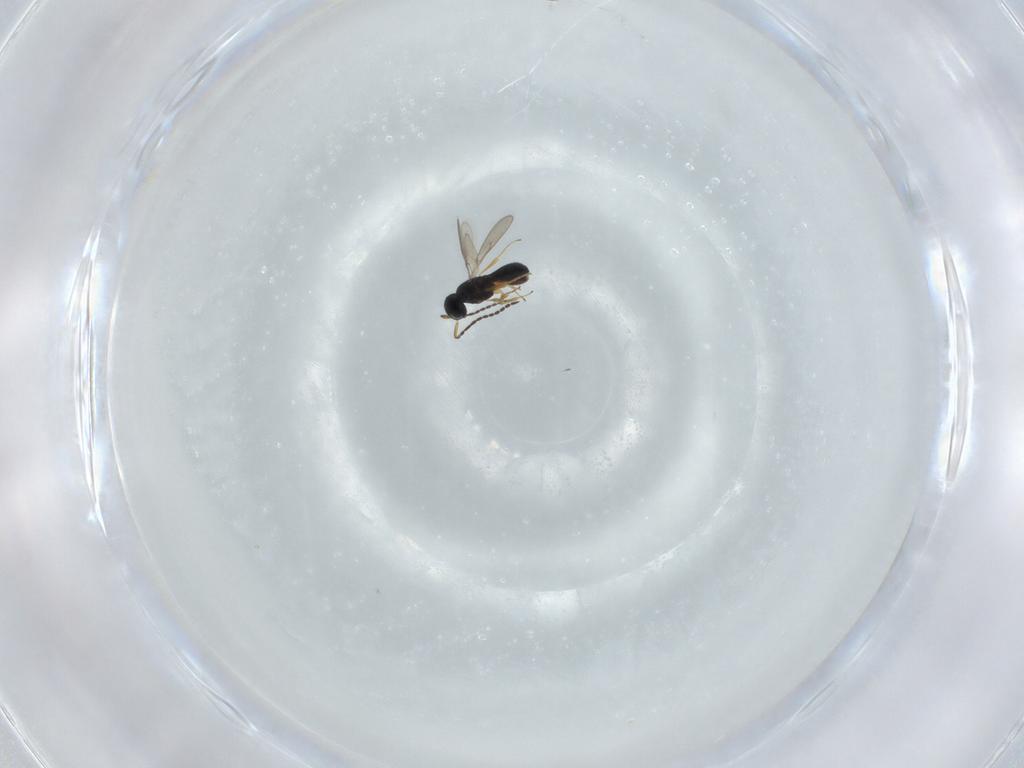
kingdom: Animalia
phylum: Arthropoda
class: Insecta
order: Hymenoptera
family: Scelionidae
